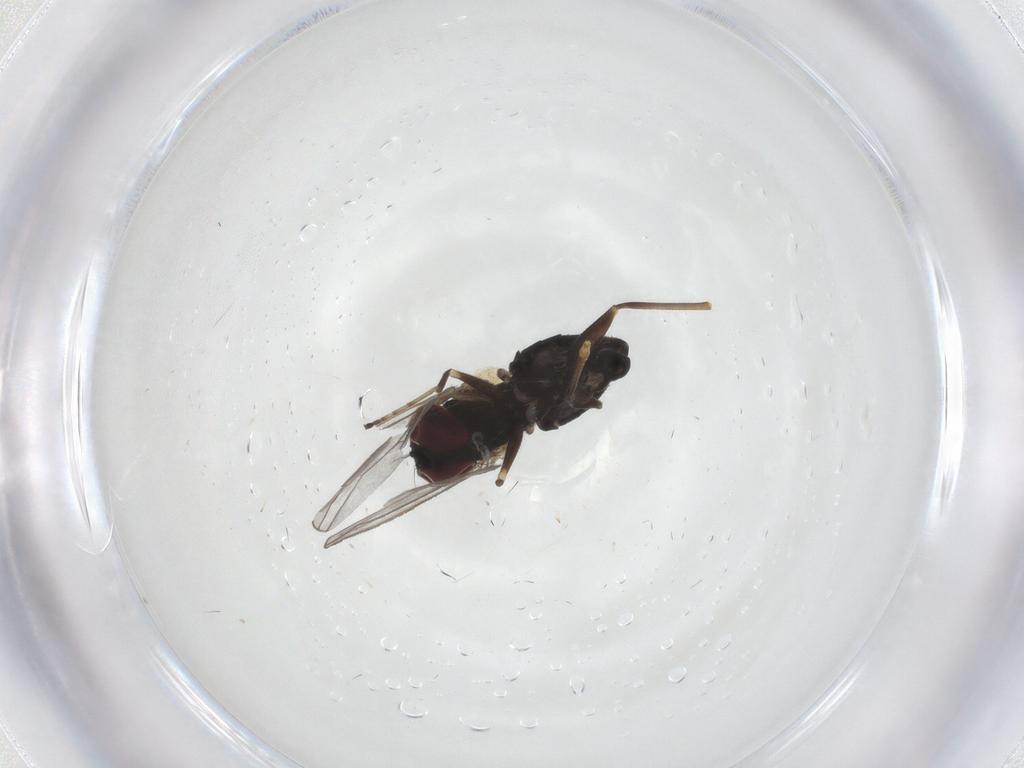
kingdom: Animalia
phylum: Arthropoda
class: Insecta
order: Diptera
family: Dolichopodidae
